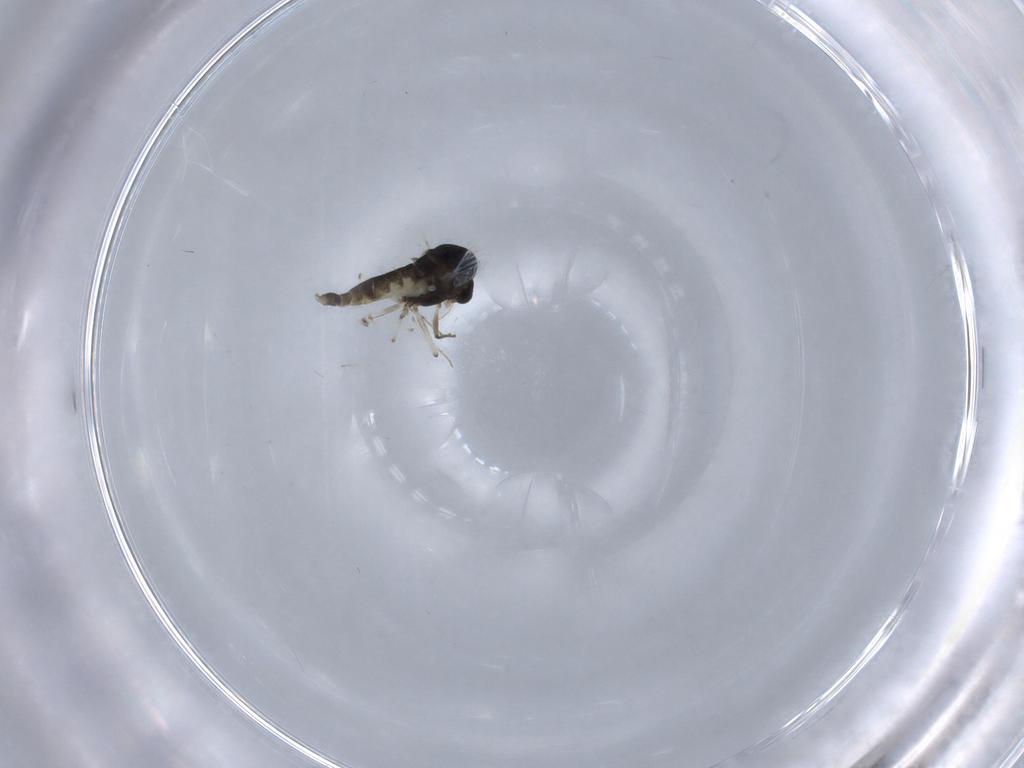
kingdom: Animalia
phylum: Arthropoda
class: Insecta
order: Diptera
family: Chironomidae
